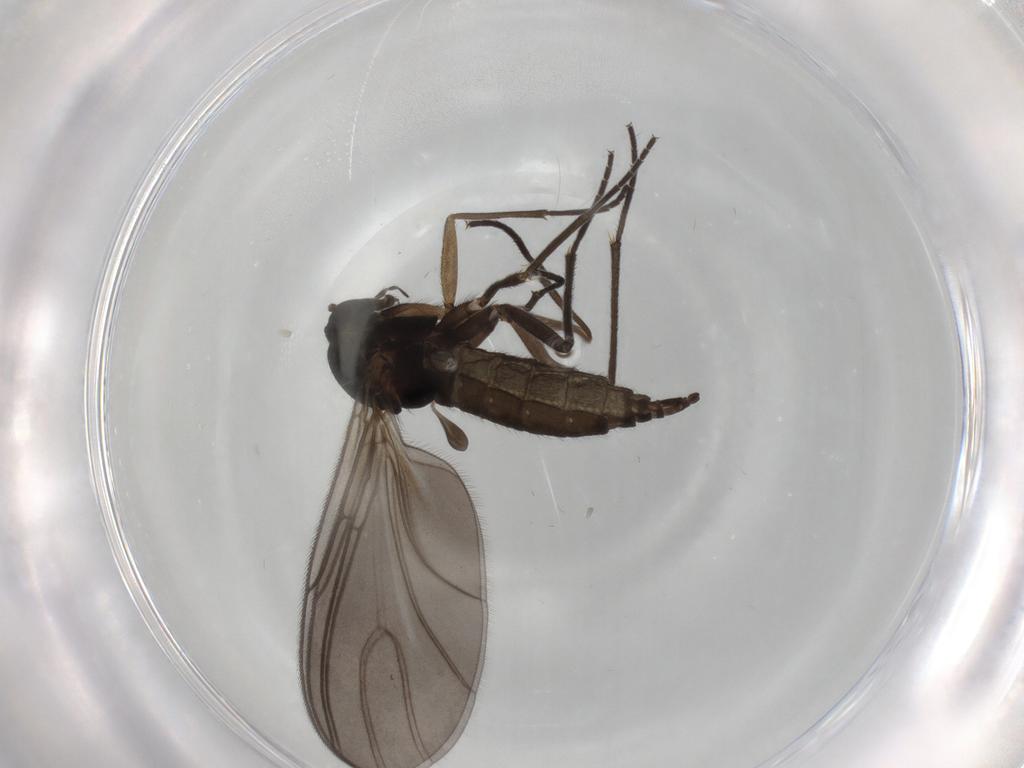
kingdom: Animalia
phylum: Arthropoda
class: Insecta
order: Diptera
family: Sciaridae
